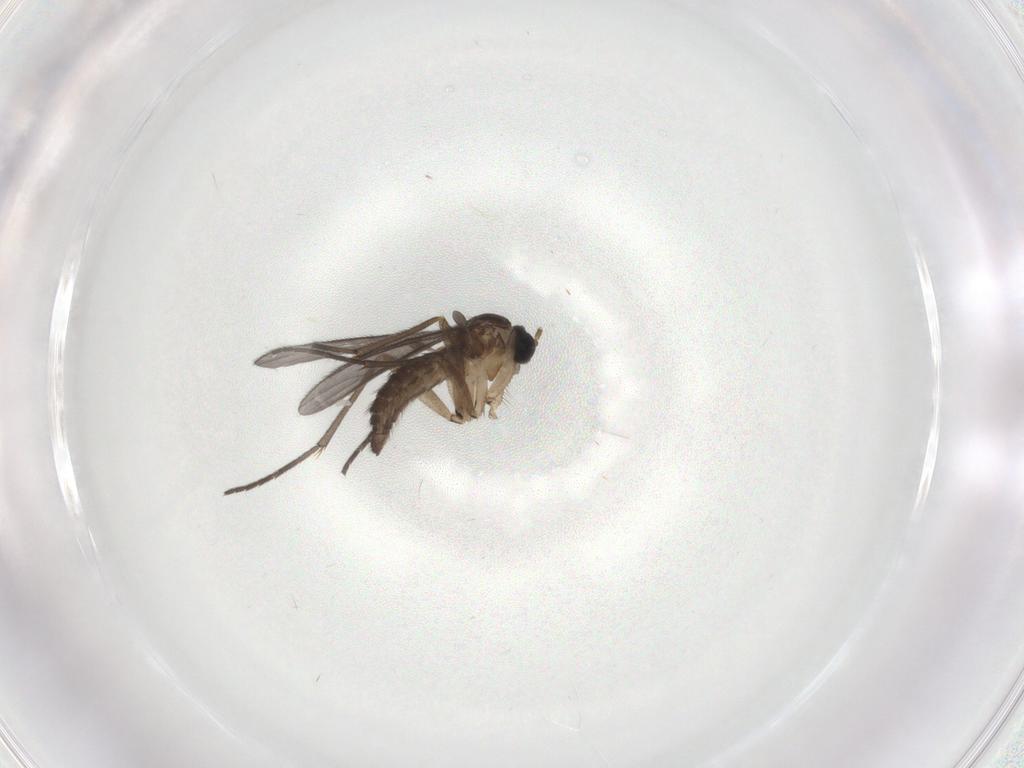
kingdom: Animalia
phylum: Arthropoda
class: Insecta
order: Diptera
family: Sciaridae
